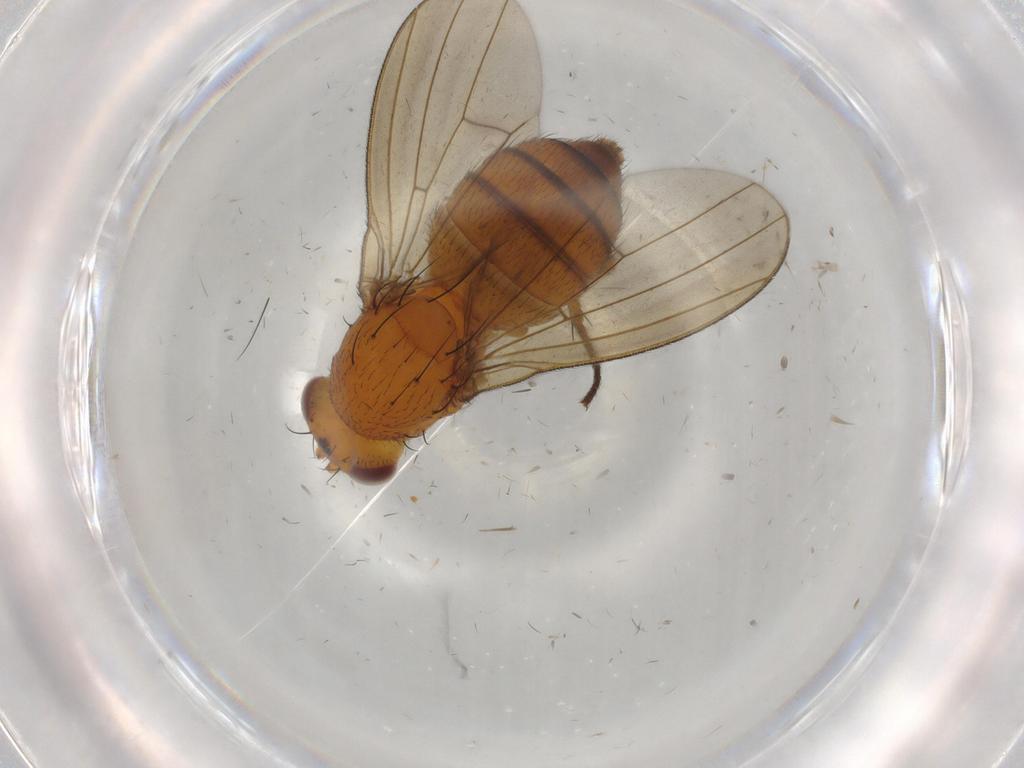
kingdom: Animalia
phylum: Arthropoda
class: Insecta
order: Diptera
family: Lauxaniidae
